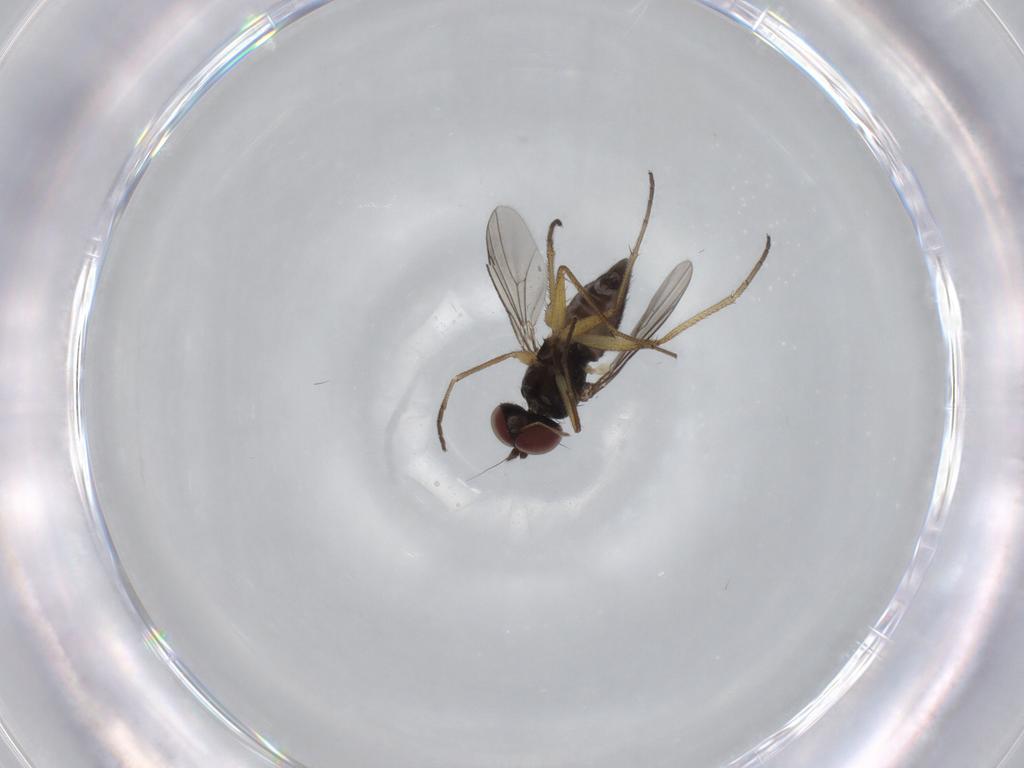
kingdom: Animalia
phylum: Arthropoda
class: Insecta
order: Diptera
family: Dolichopodidae
